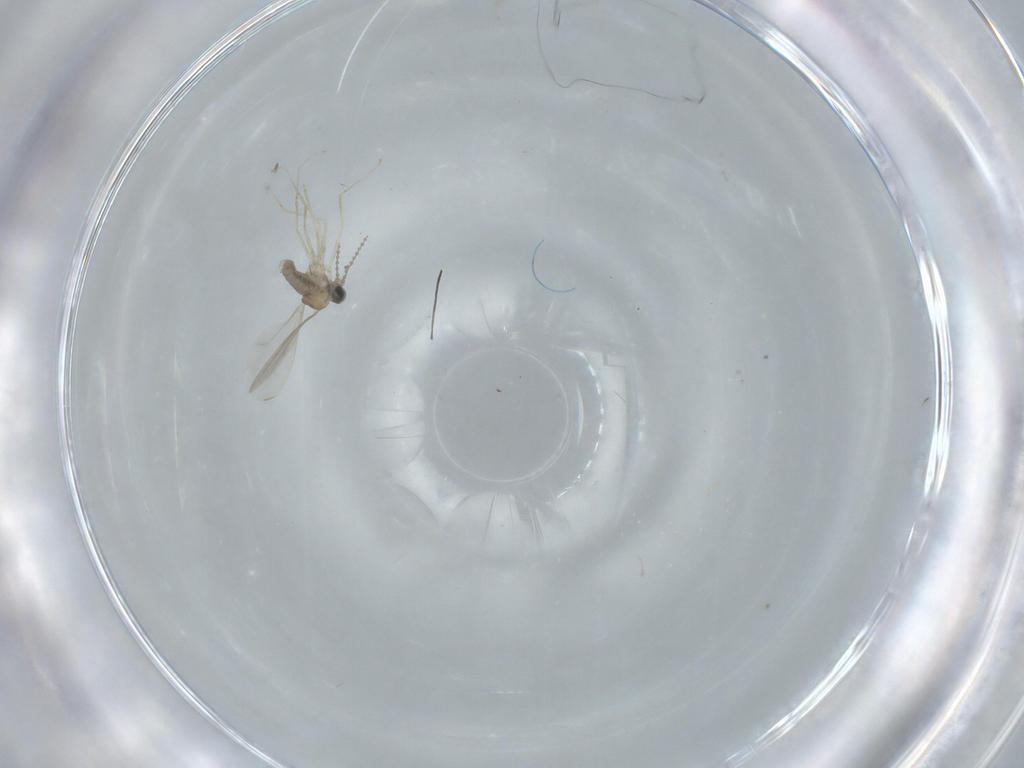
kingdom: Animalia
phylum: Arthropoda
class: Insecta
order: Diptera
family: Cecidomyiidae
